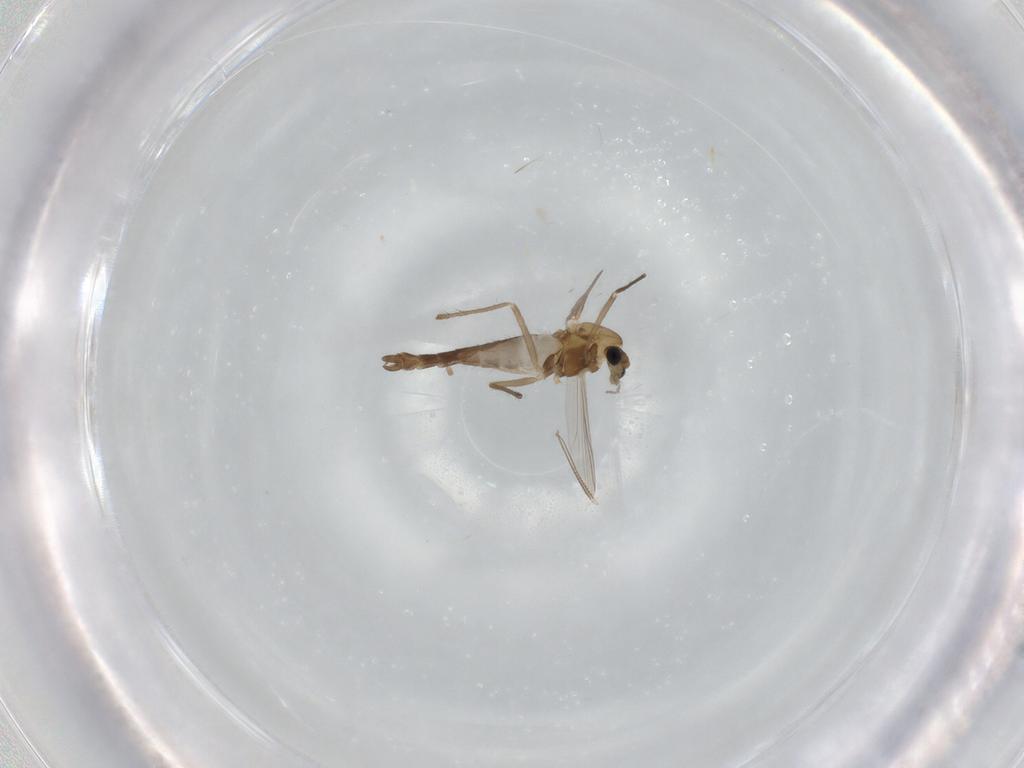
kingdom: Animalia
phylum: Arthropoda
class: Insecta
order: Diptera
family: Chironomidae
